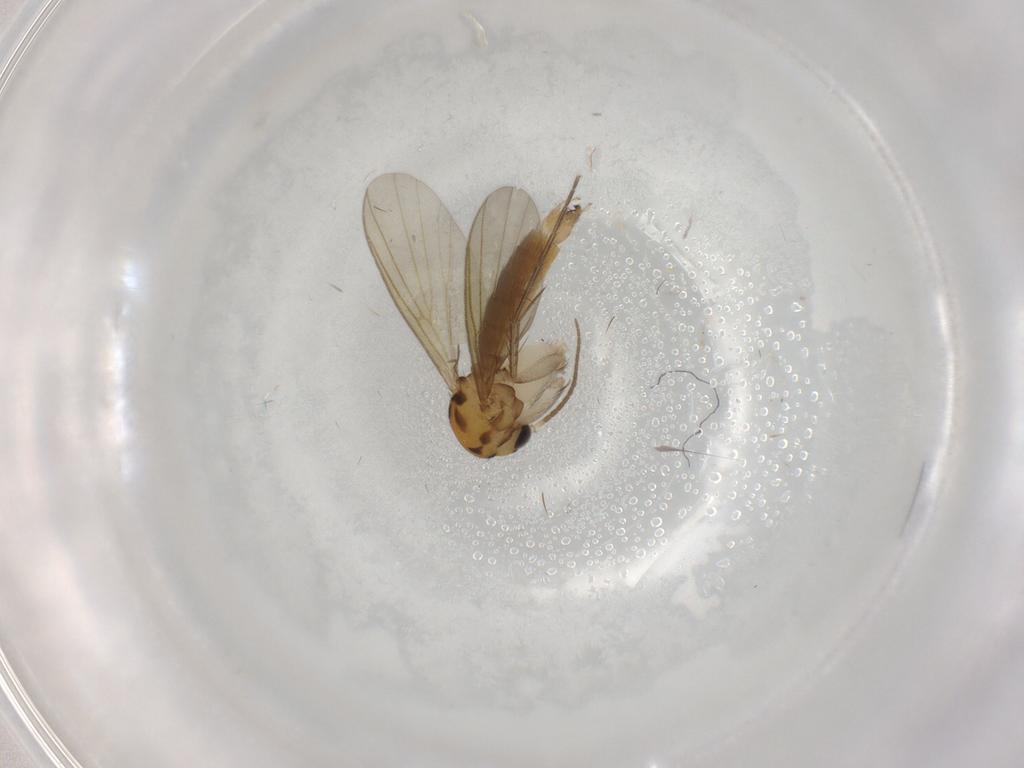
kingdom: Animalia
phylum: Arthropoda
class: Insecta
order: Diptera
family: Mycetophilidae
